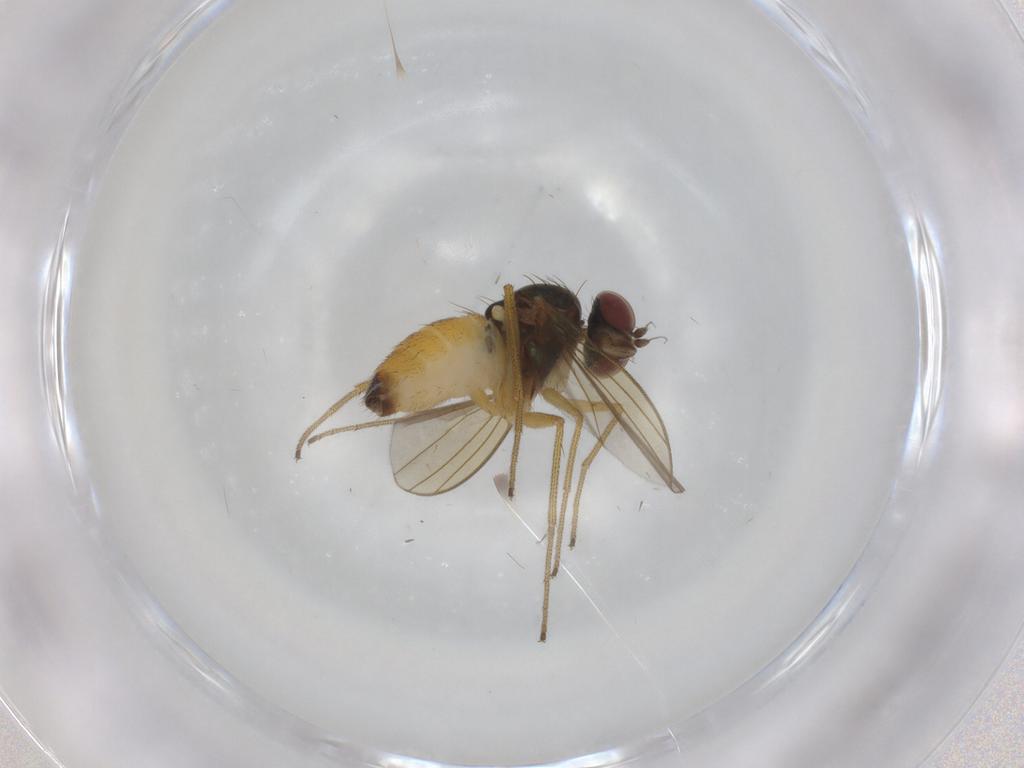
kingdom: Animalia
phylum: Arthropoda
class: Insecta
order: Diptera
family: Dolichopodidae
